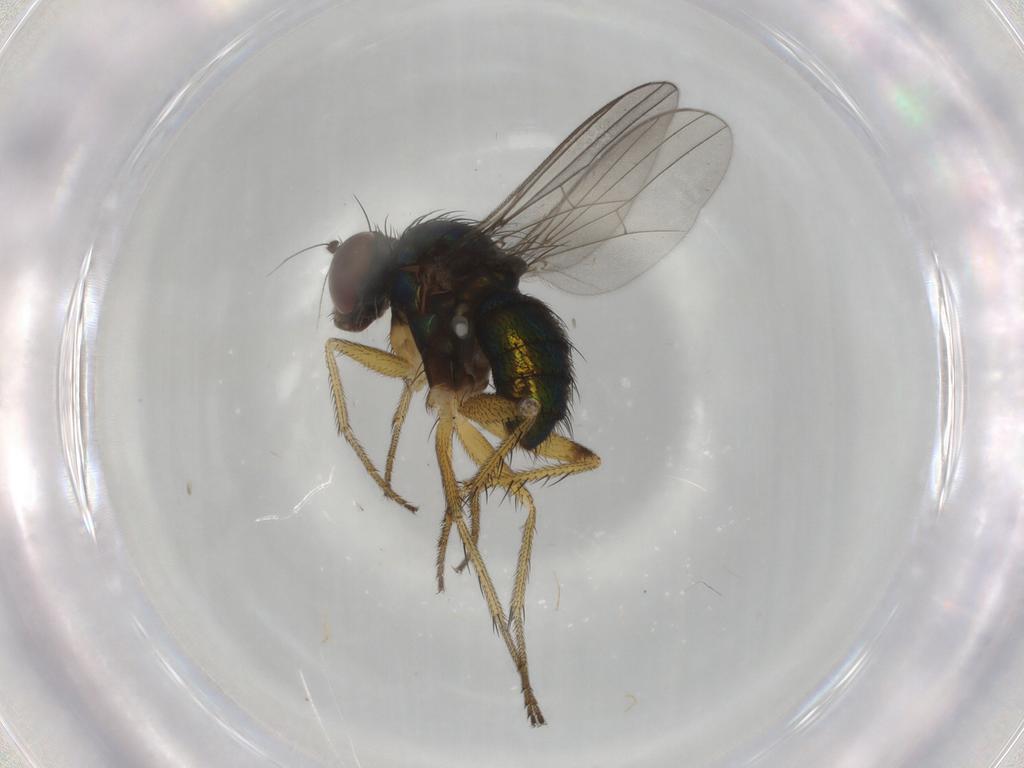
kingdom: Animalia
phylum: Arthropoda
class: Insecta
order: Diptera
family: Dolichopodidae
